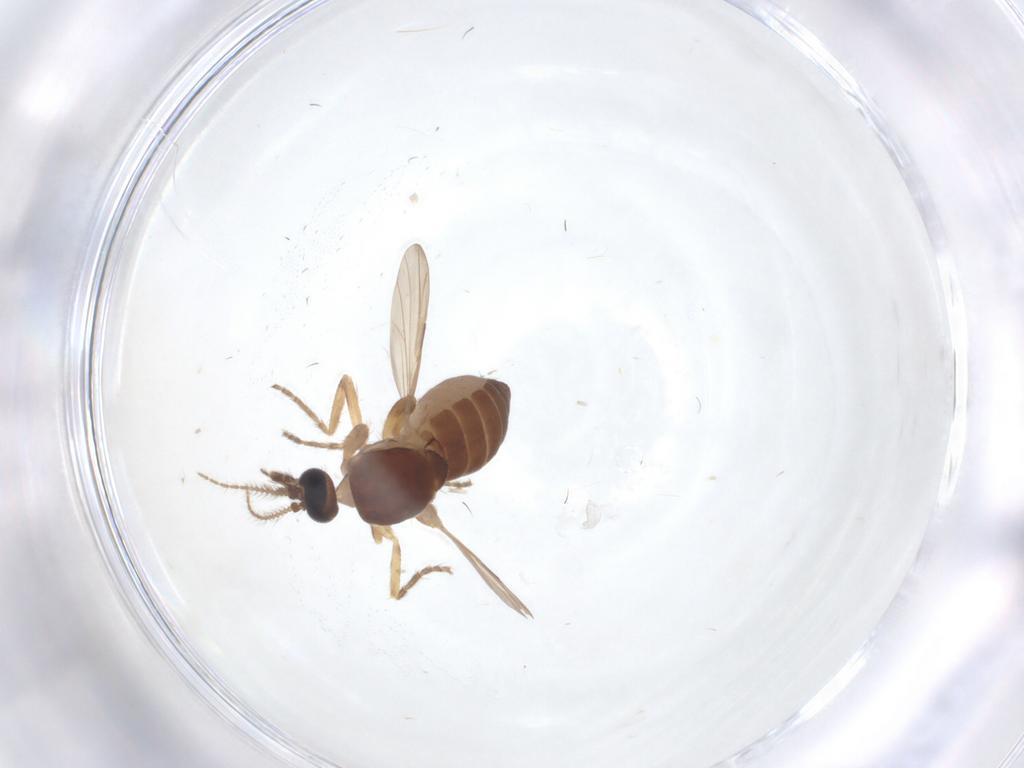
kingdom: Animalia
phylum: Arthropoda
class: Insecta
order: Diptera
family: Ceratopogonidae
